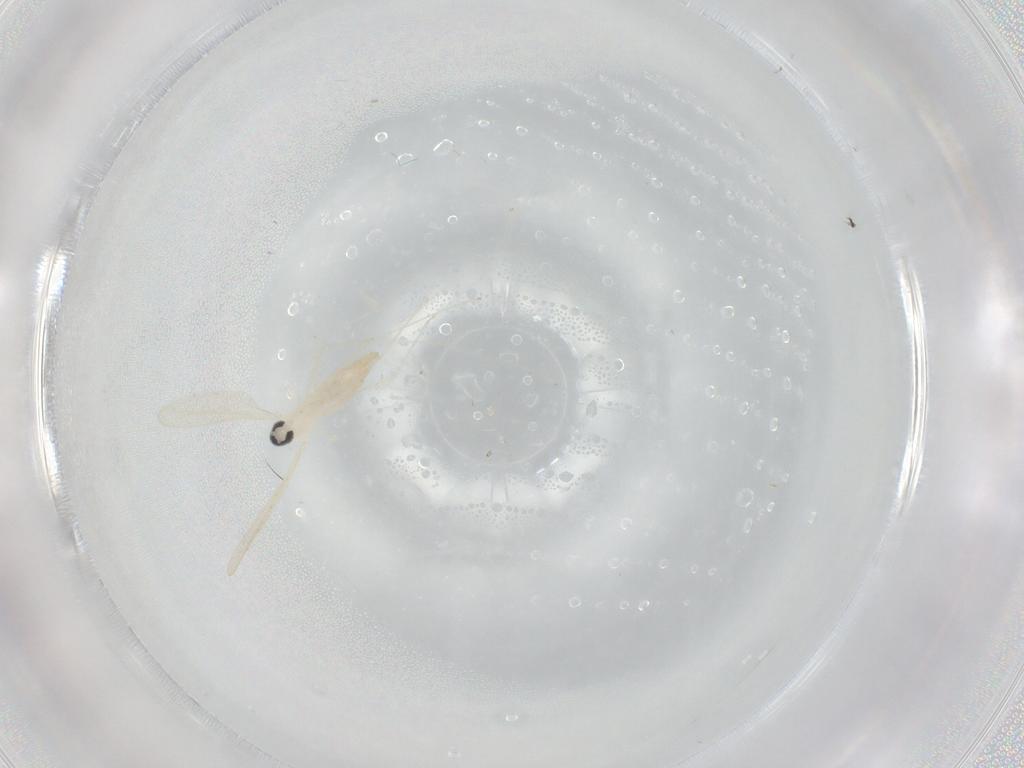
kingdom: Animalia
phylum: Arthropoda
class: Insecta
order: Diptera
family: Cecidomyiidae
